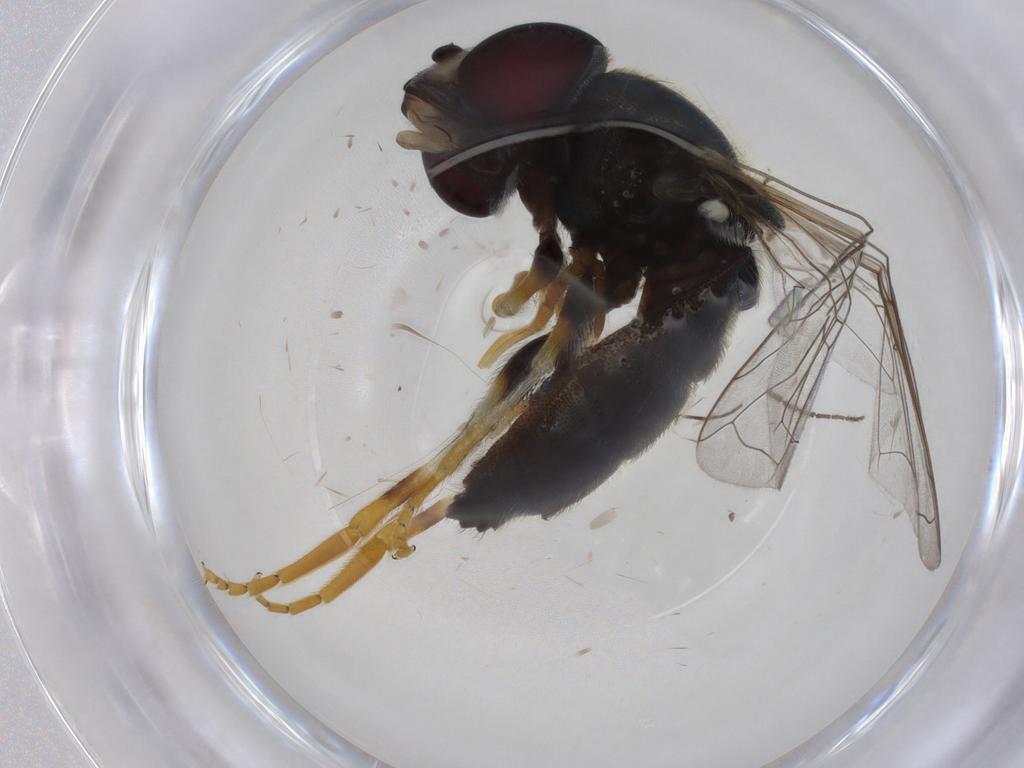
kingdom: Animalia
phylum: Arthropoda
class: Insecta
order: Diptera
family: Syrphidae
